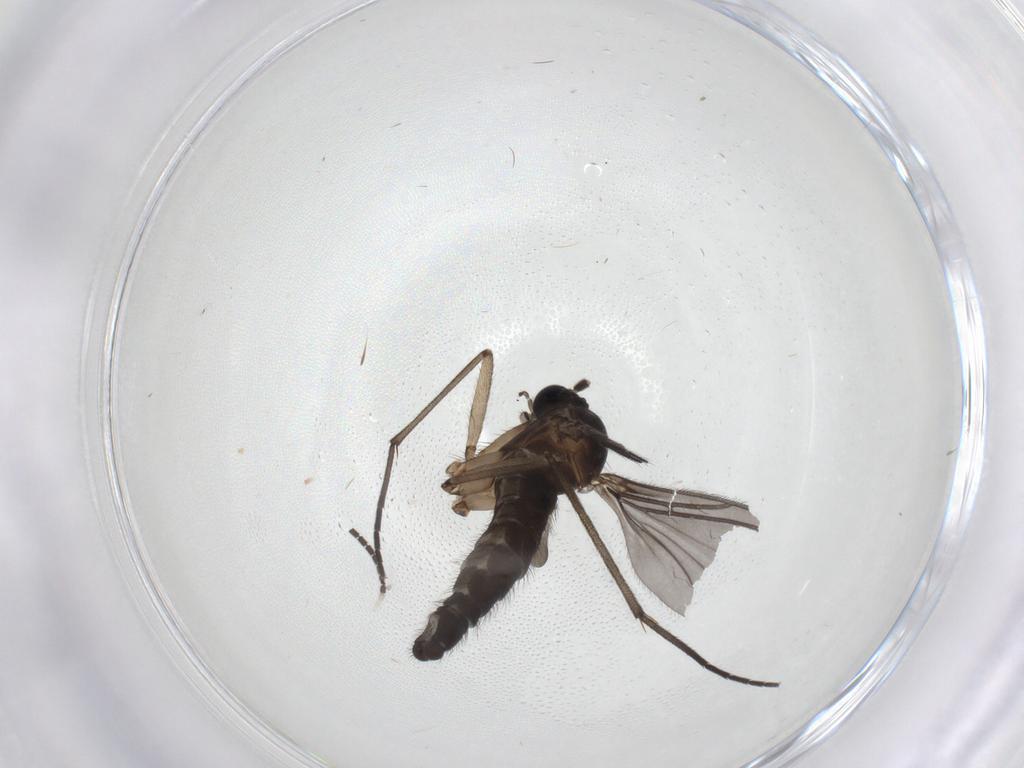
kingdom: Animalia
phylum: Arthropoda
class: Insecta
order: Diptera
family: Sciaridae
